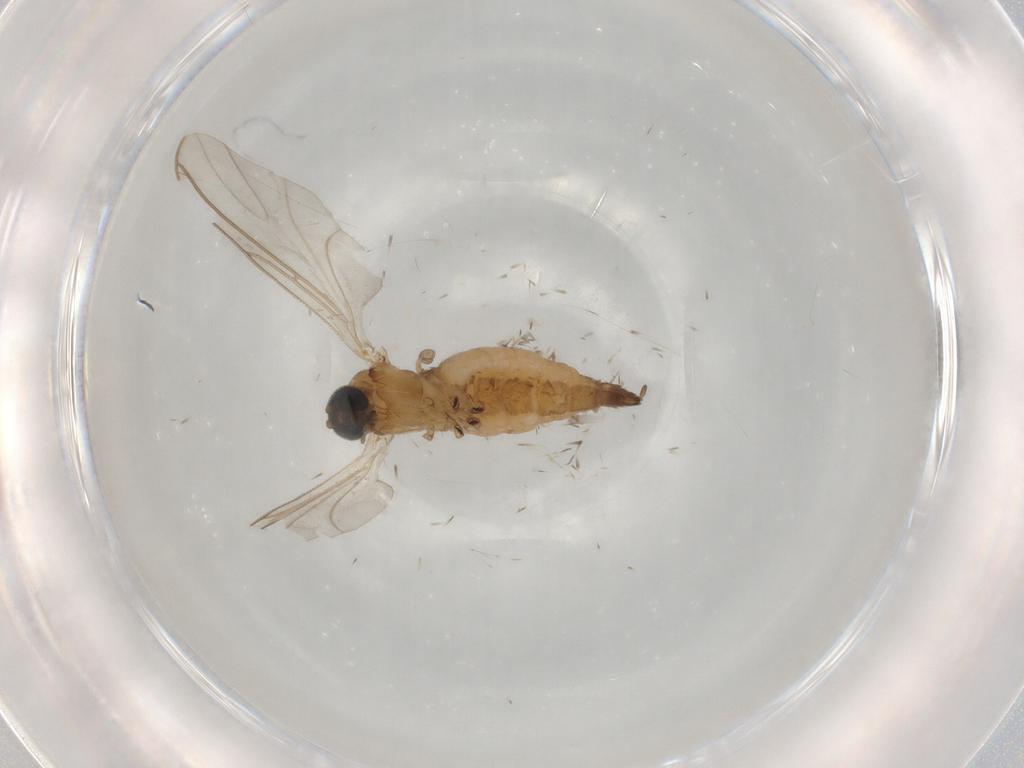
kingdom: Animalia
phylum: Arthropoda
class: Insecta
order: Diptera
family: Sciaridae
